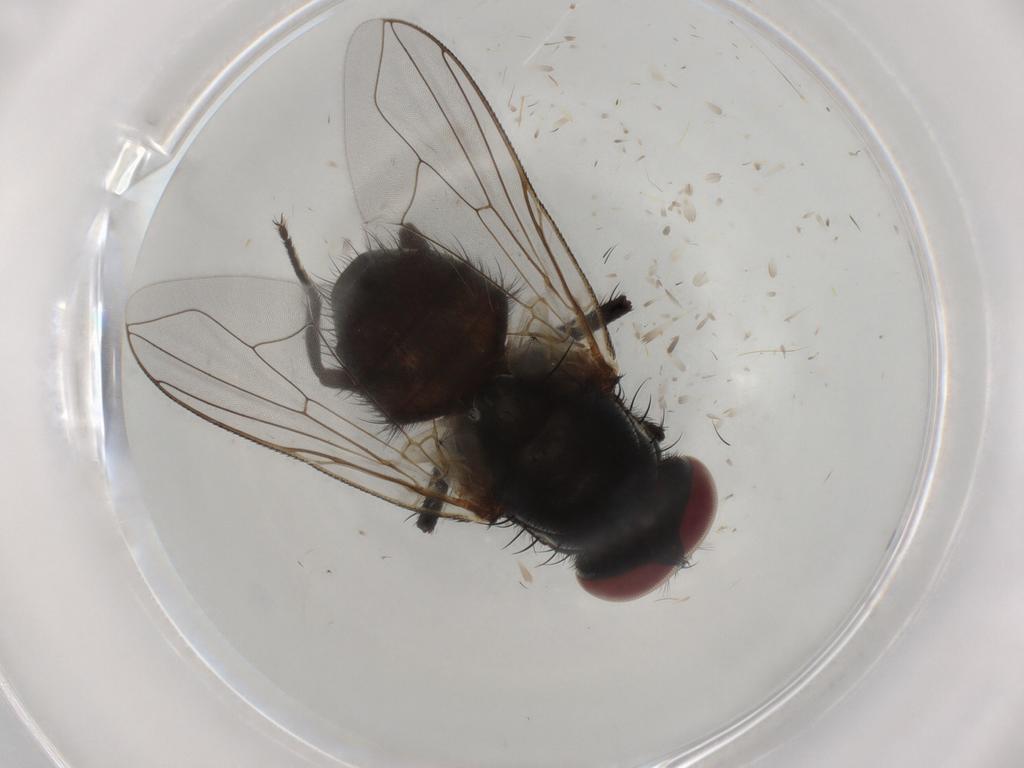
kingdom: Animalia
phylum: Arthropoda
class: Insecta
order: Diptera
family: Muscidae
